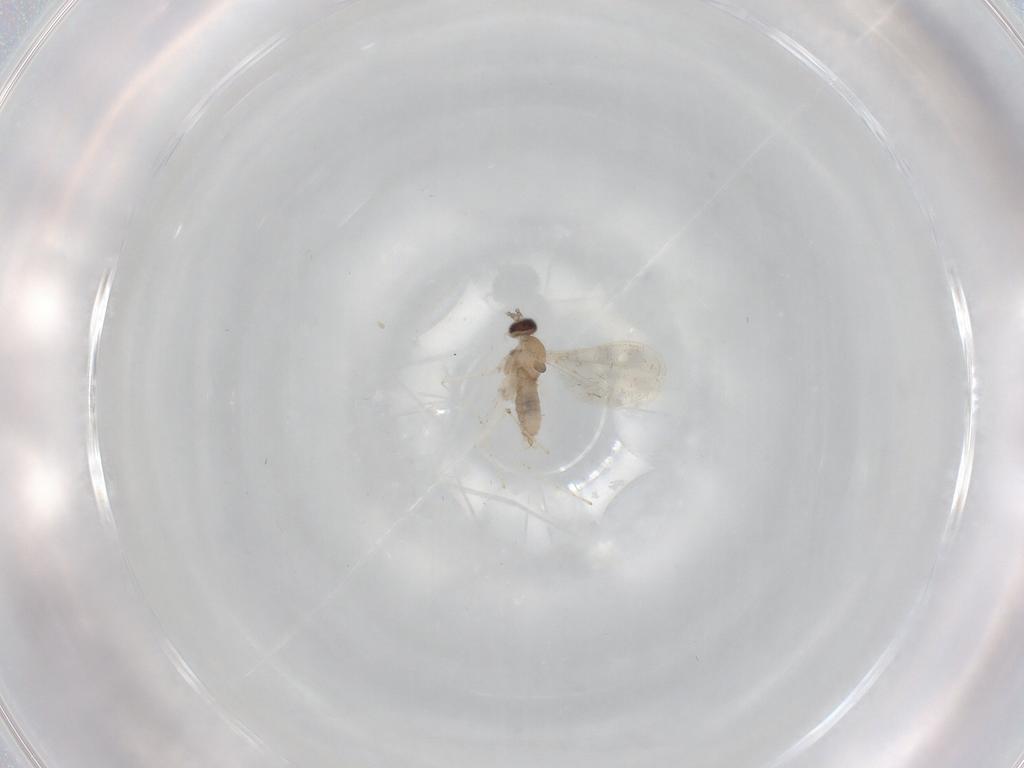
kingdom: Animalia
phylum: Arthropoda
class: Insecta
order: Diptera
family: Cecidomyiidae
